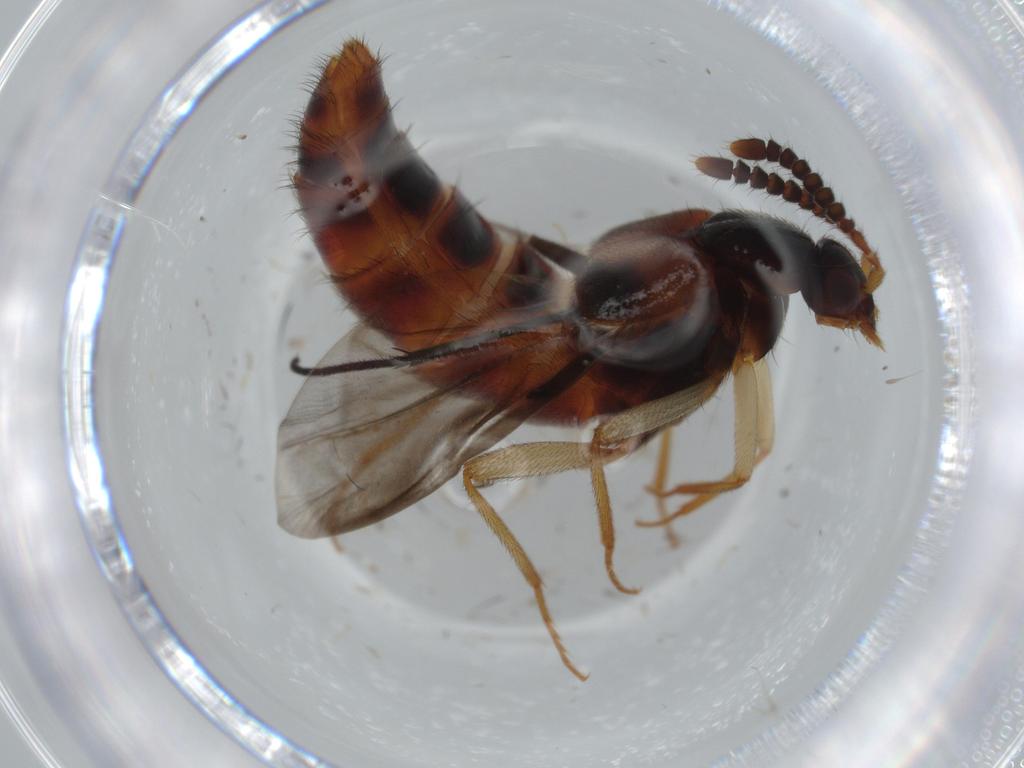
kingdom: Animalia
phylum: Arthropoda
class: Insecta
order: Coleoptera
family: Staphylinidae
